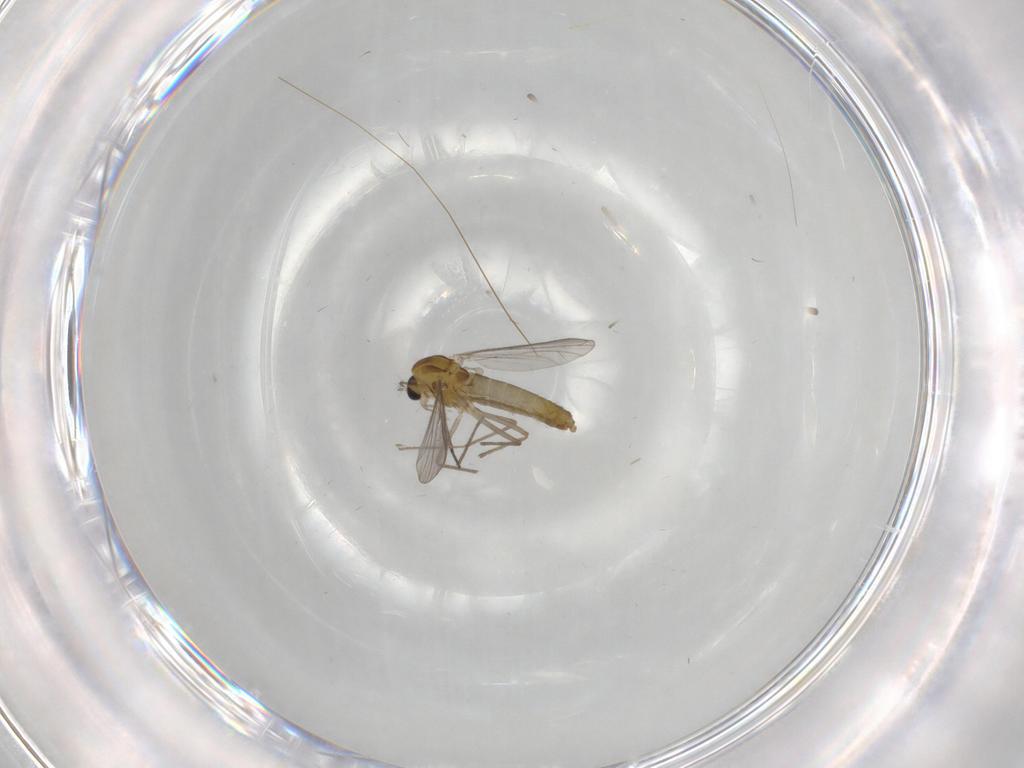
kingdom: Animalia
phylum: Arthropoda
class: Insecta
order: Diptera
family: Chironomidae
